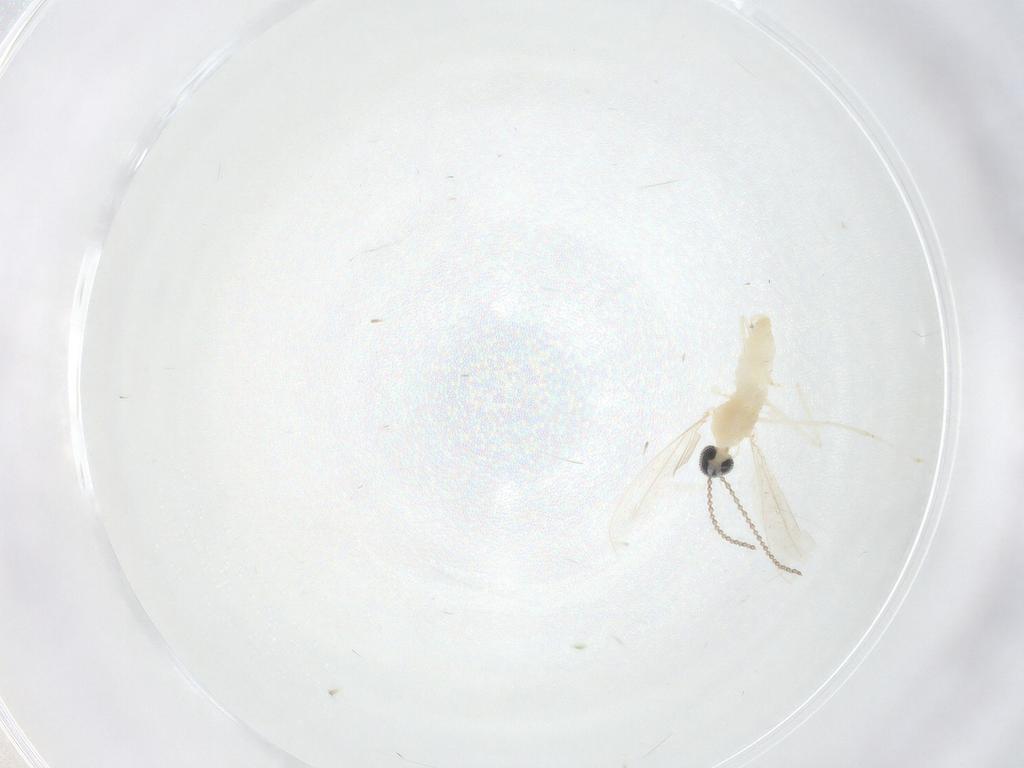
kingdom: Animalia
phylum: Arthropoda
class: Insecta
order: Diptera
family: Cecidomyiidae
